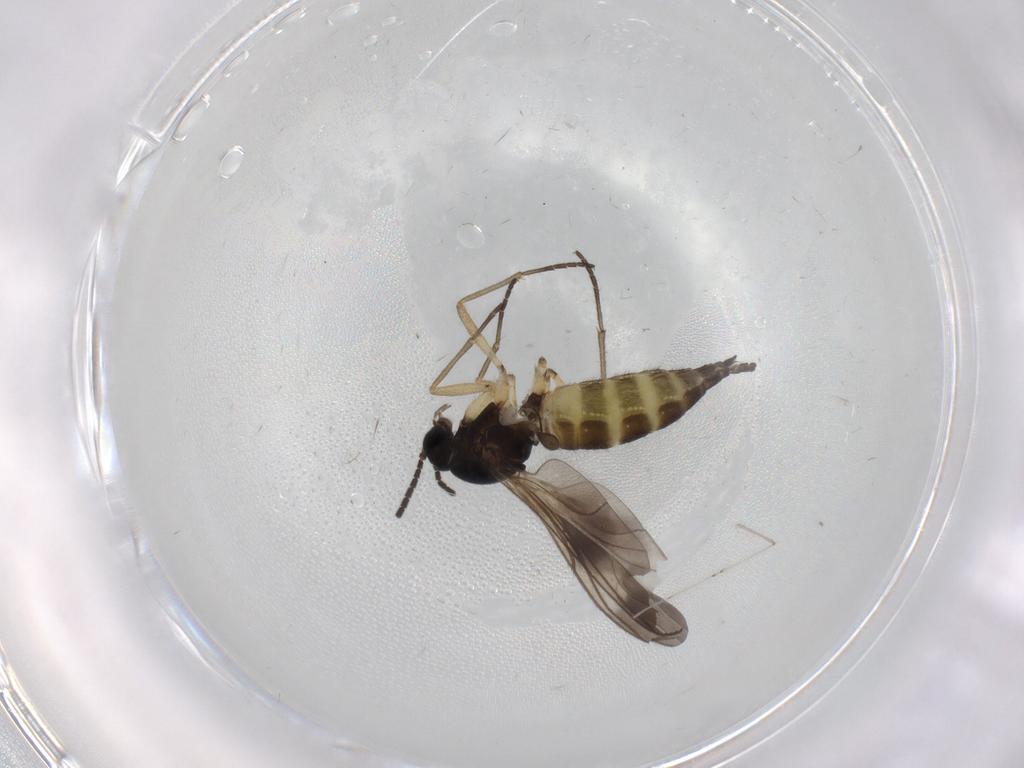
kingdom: Animalia
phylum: Arthropoda
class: Insecta
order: Diptera
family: Sciaridae
